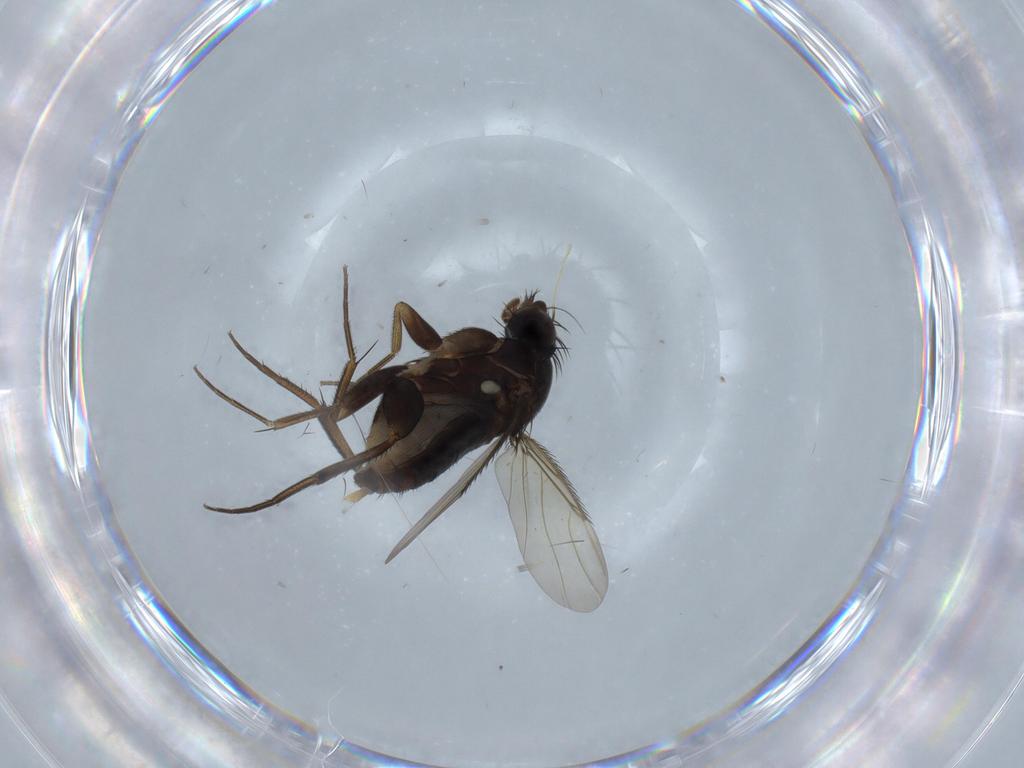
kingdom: Animalia
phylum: Arthropoda
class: Insecta
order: Diptera
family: Phoridae
